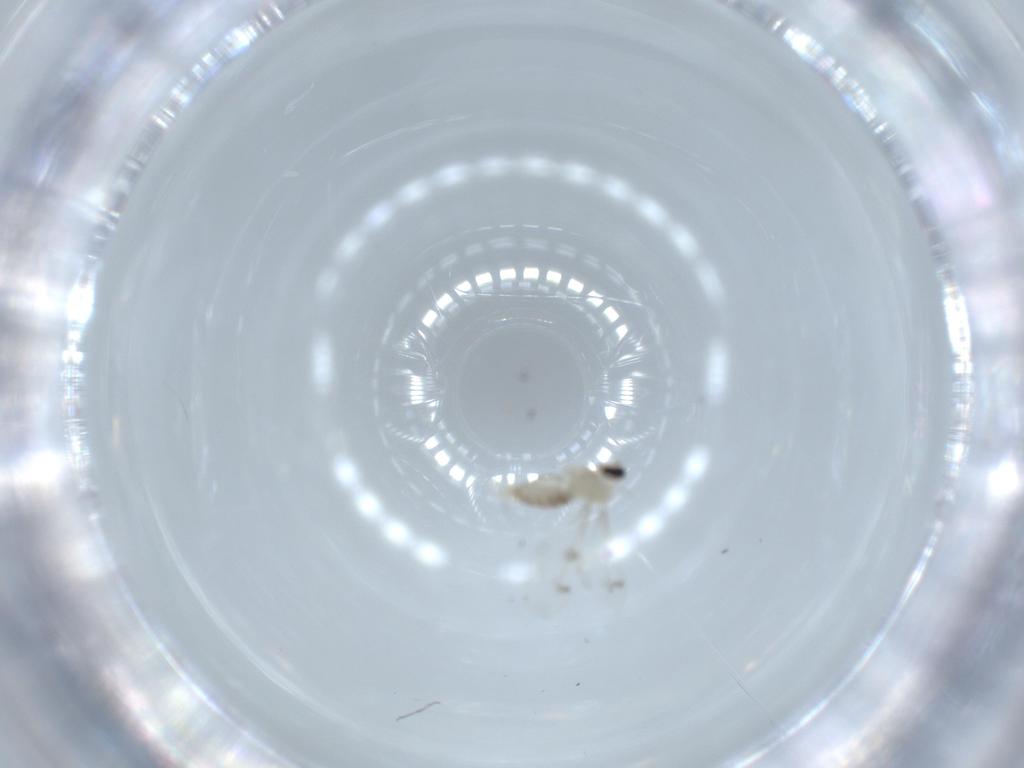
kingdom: Animalia
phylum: Arthropoda
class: Insecta
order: Diptera
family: Cecidomyiidae
